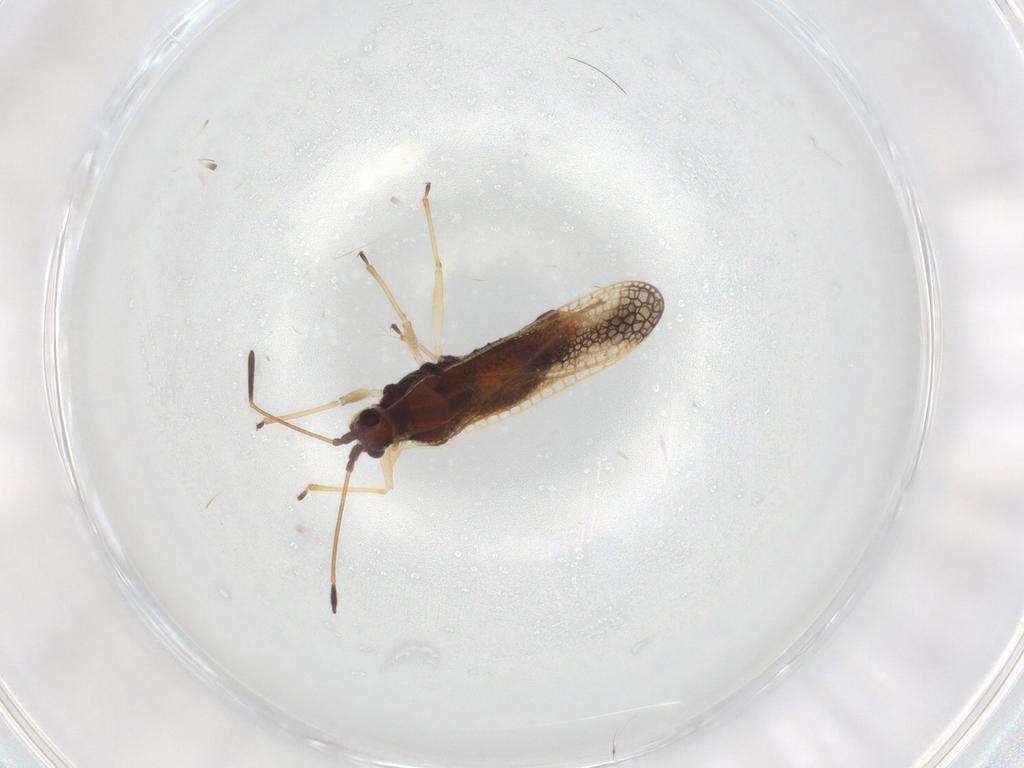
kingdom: Animalia
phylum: Arthropoda
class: Insecta
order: Hemiptera
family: Tingidae
